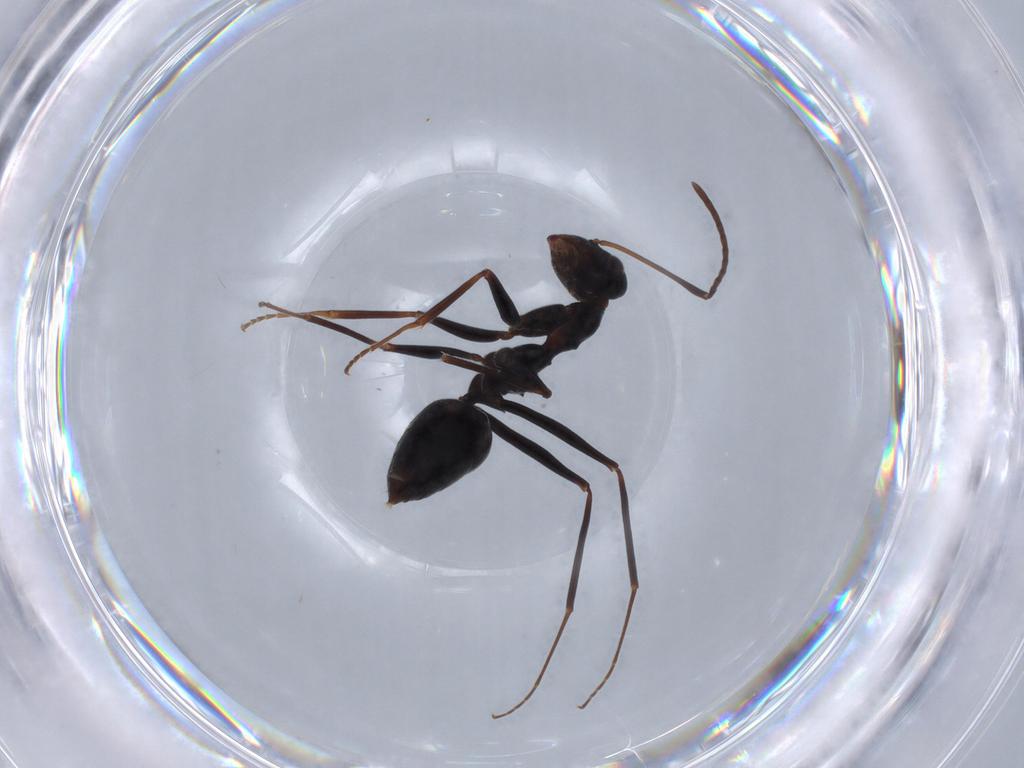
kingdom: Animalia
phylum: Arthropoda
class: Insecta
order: Hymenoptera
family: Formicidae
